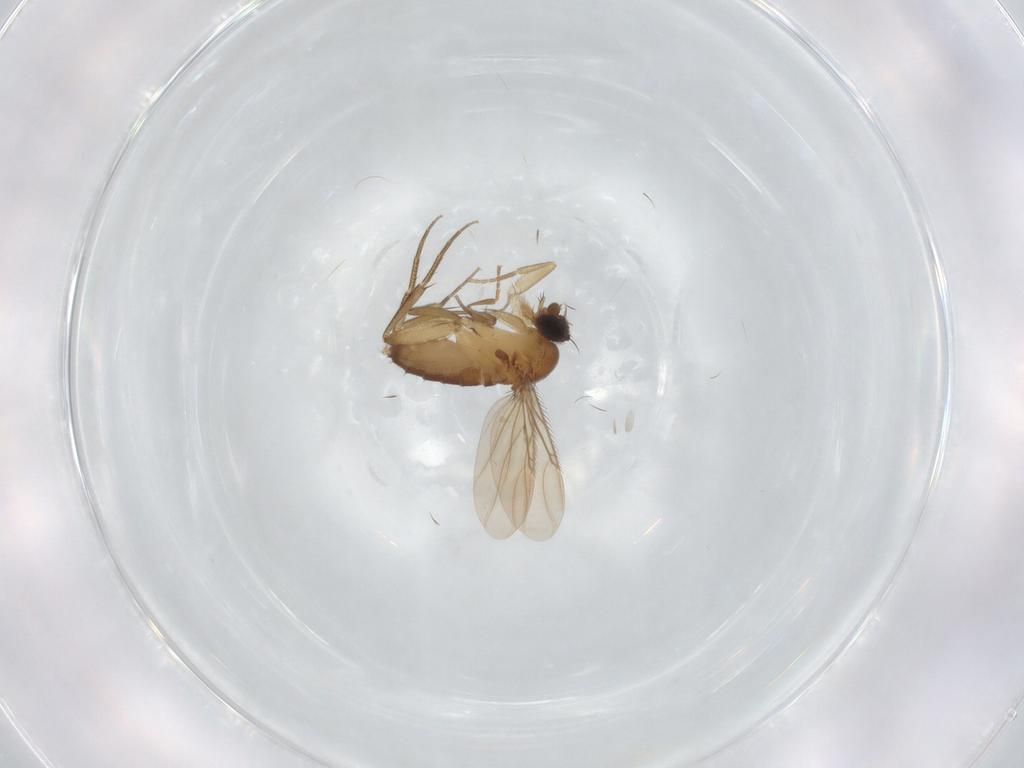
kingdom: Animalia
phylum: Arthropoda
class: Insecta
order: Diptera
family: Phoridae
